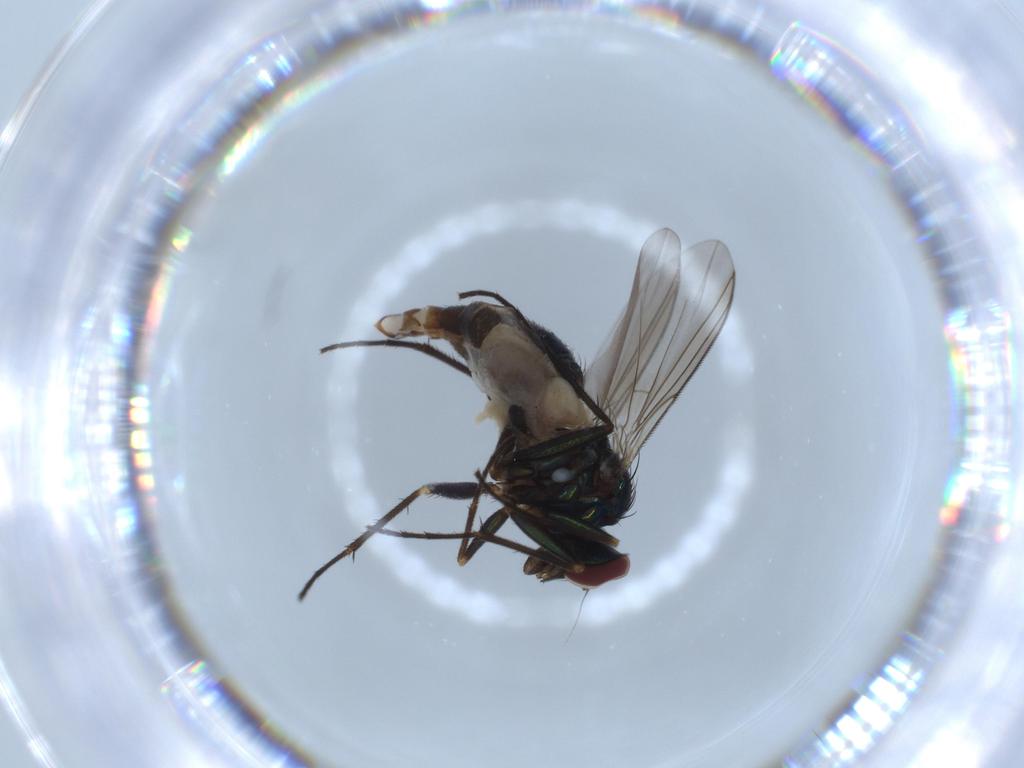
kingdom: Animalia
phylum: Arthropoda
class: Insecta
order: Diptera
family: Dolichopodidae
